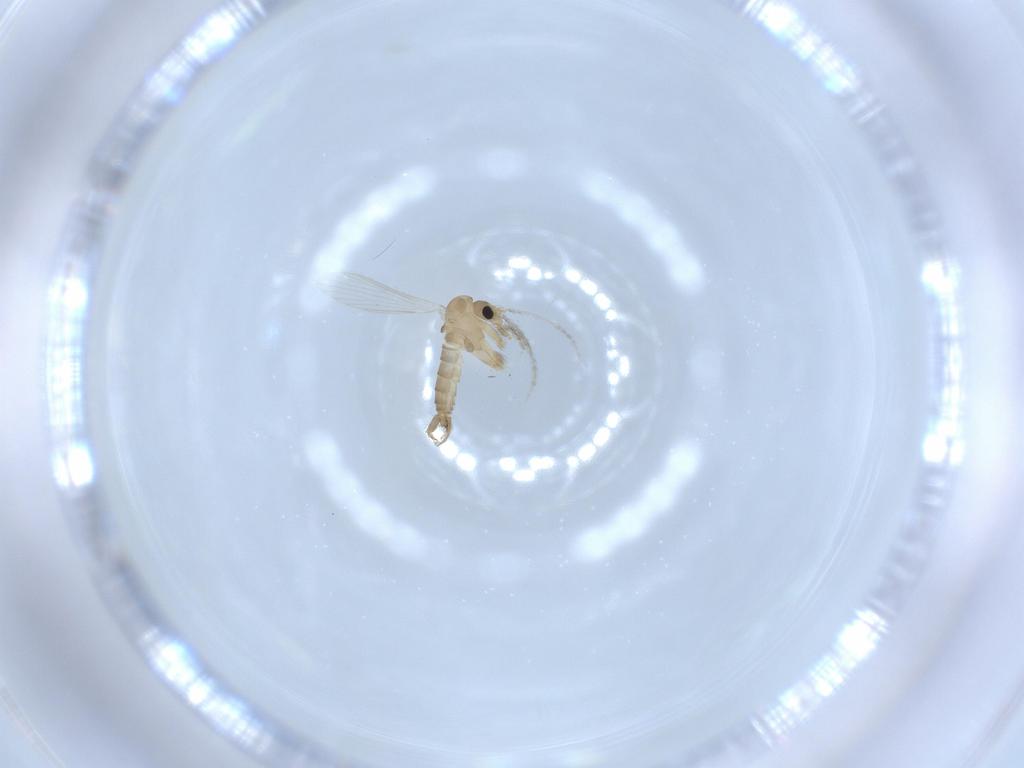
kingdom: Animalia
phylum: Arthropoda
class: Insecta
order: Diptera
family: Psychodidae
